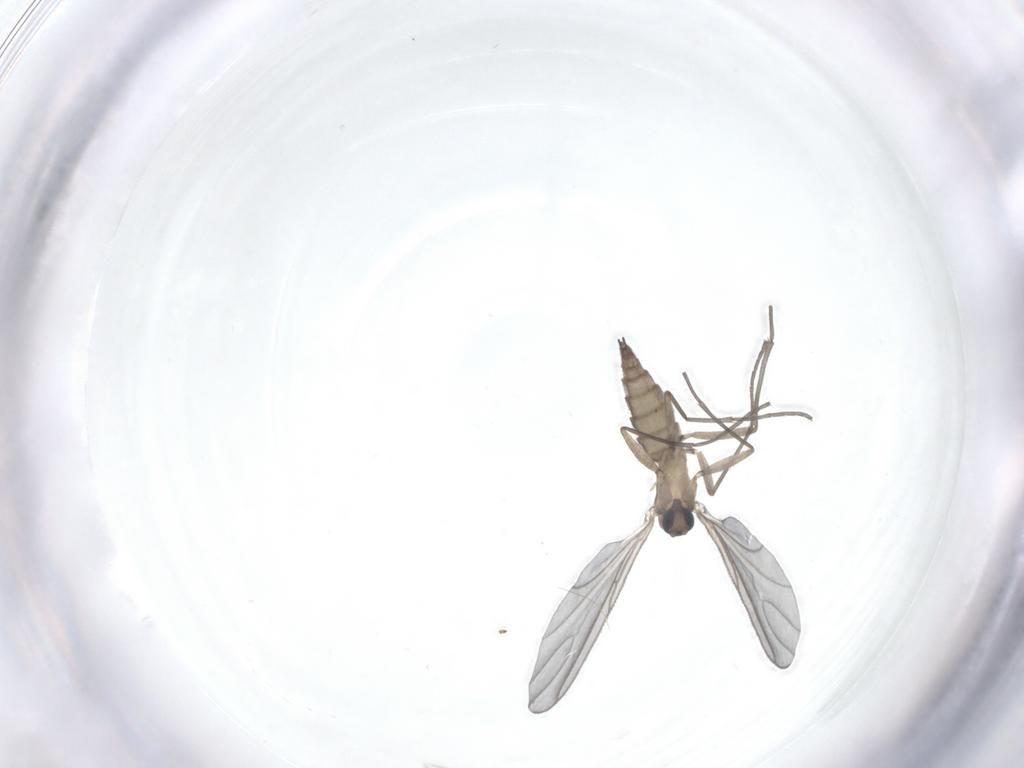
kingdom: Animalia
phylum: Arthropoda
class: Insecta
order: Diptera
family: Sciaridae
